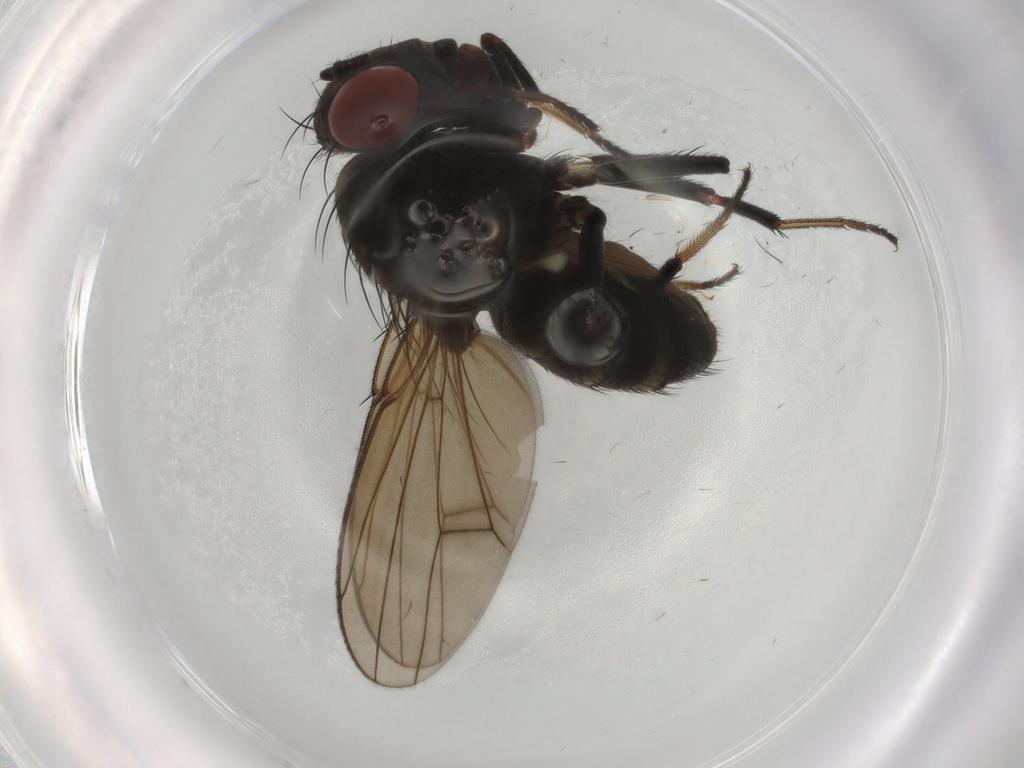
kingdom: Animalia
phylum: Arthropoda
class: Insecta
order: Diptera
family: Ephydridae
